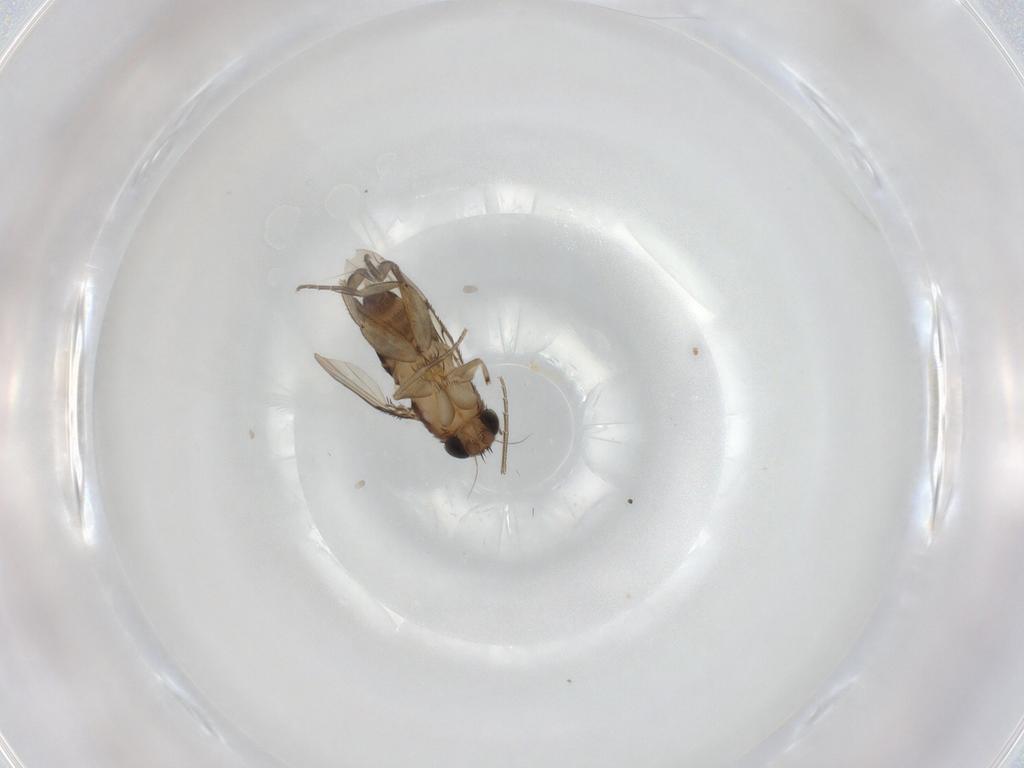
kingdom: Animalia
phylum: Arthropoda
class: Insecta
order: Diptera
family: Phoridae
